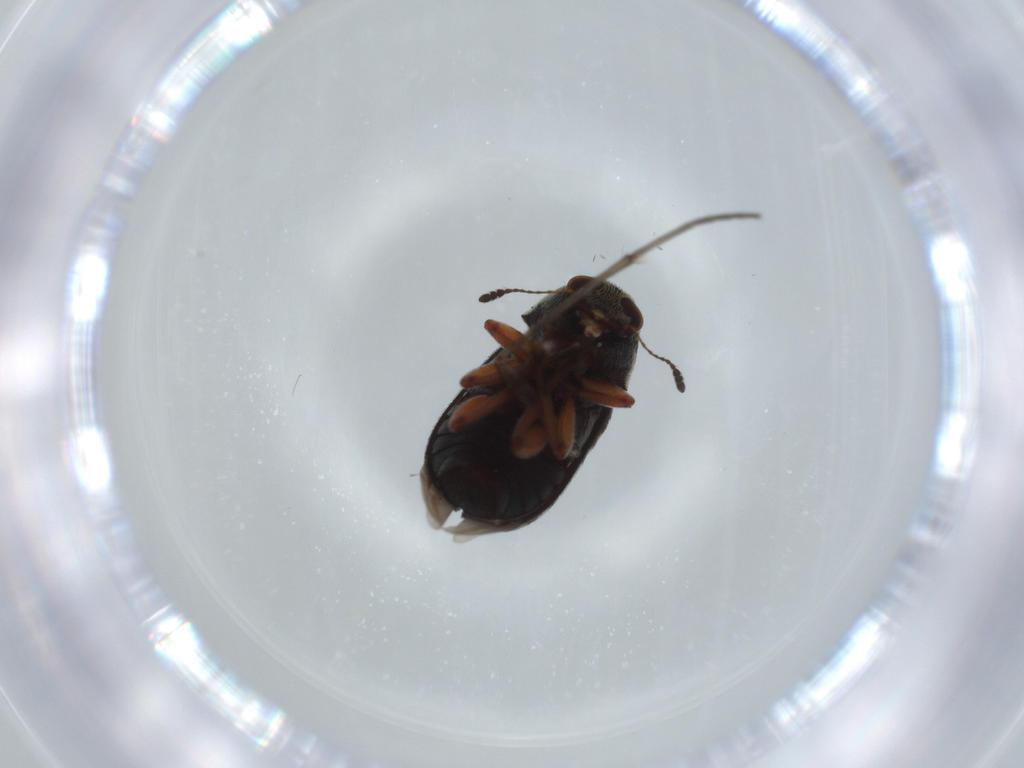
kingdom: Animalia
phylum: Arthropoda
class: Insecta
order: Coleoptera
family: Anthribidae
